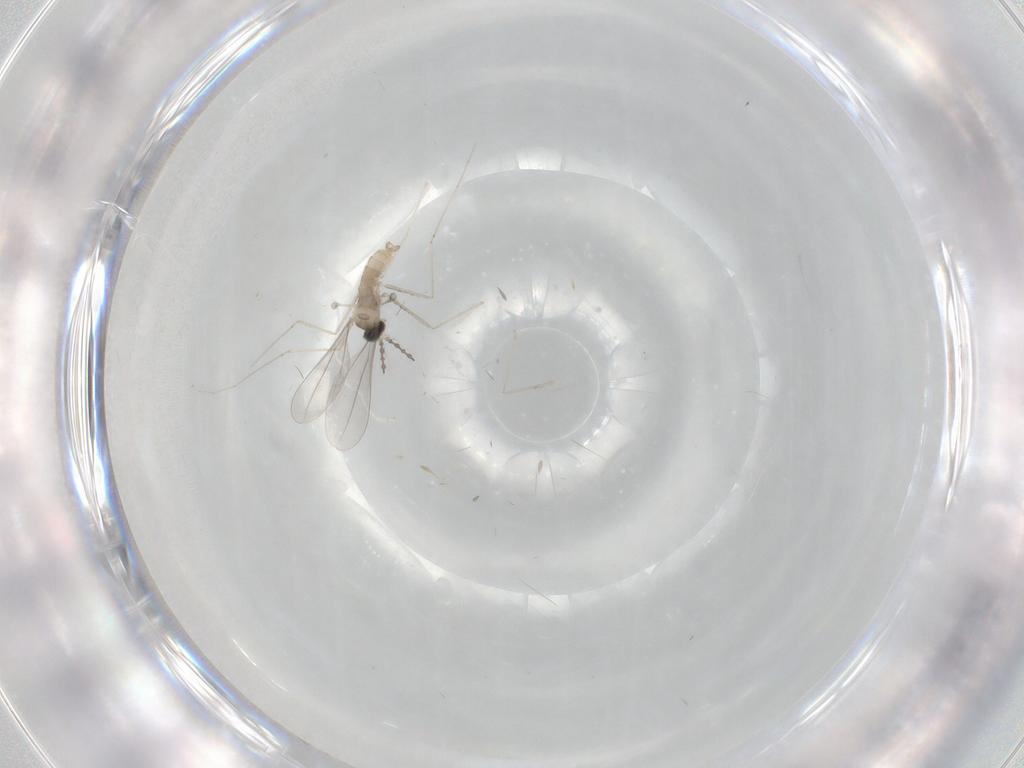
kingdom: Animalia
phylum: Arthropoda
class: Insecta
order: Diptera
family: Cecidomyiidae
